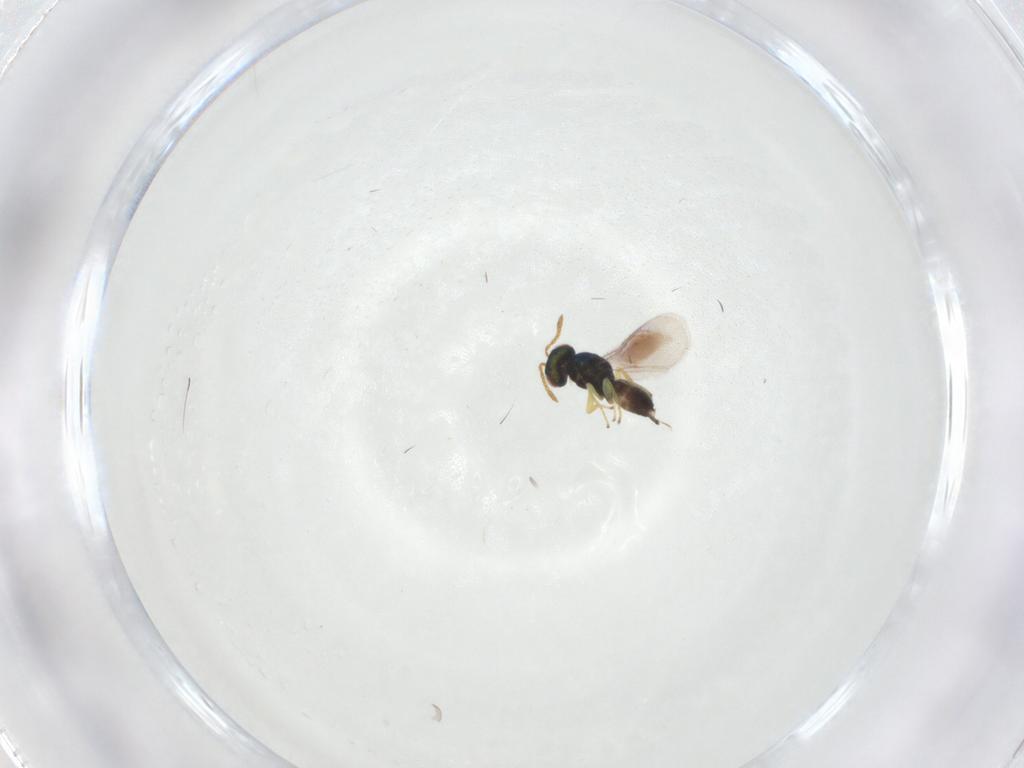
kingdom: Animalia
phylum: Arthropoda
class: Insecta
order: Hymenoptera
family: Pteromalidae
